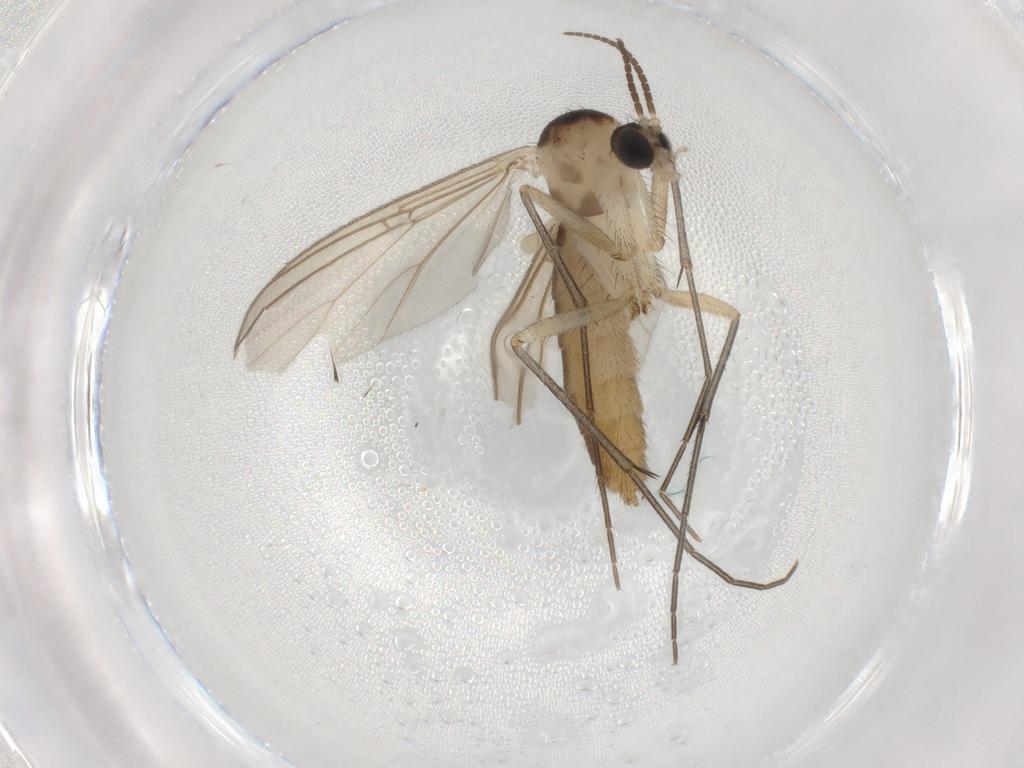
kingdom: Animalia
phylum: Arthropoda
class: Insecta
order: Diptera
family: Mycetophilidae
